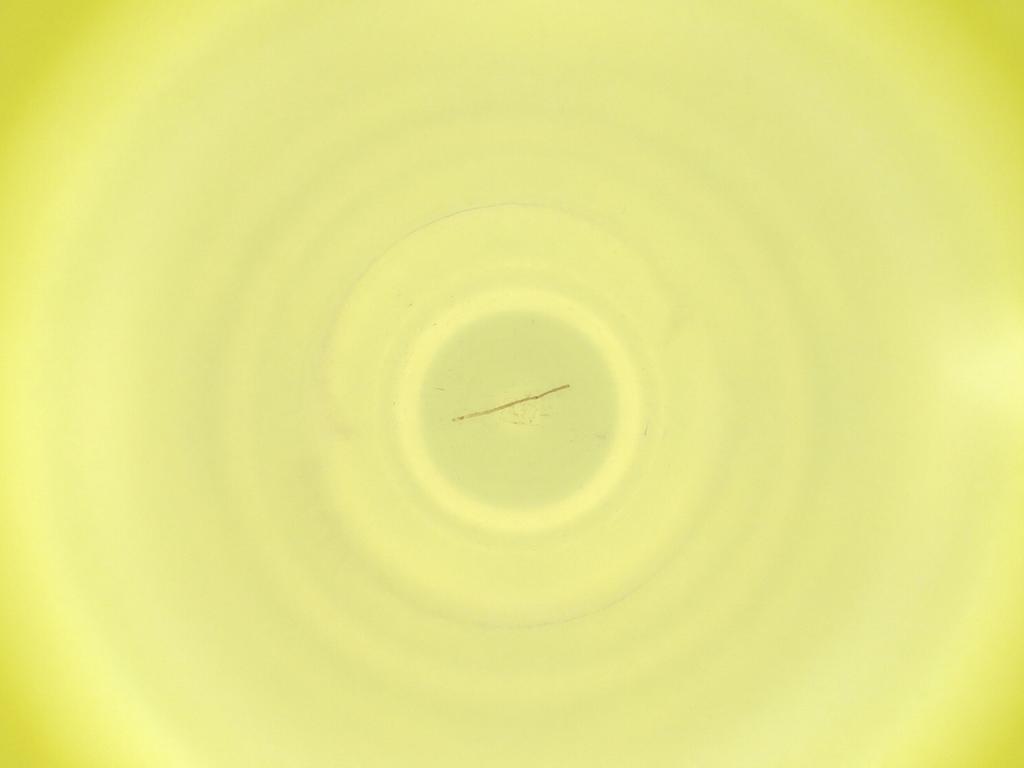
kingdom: Animalia
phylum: Arthropoda
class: Insecta
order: Diptera
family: Cecidomyiidae
